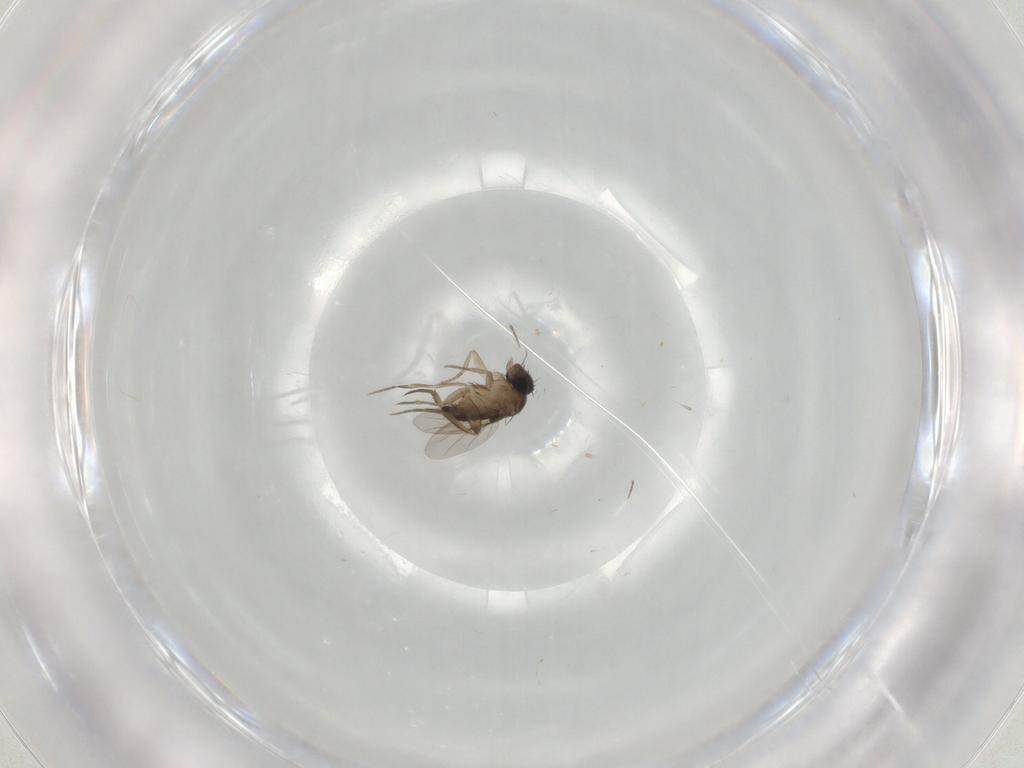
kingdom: Animalia
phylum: Arthropoda
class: Insecta
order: Diptera
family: Phoridae
